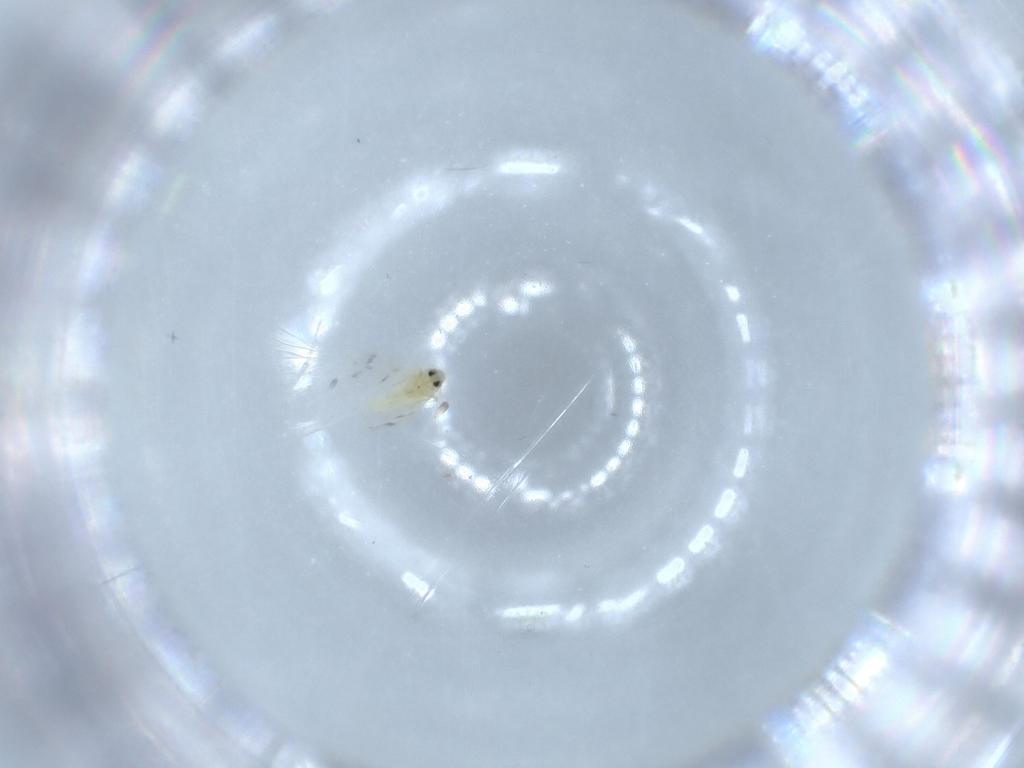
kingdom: Animalia
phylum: Arthropoda
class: Insecta
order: Hemiptera
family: Aleyrodidae
